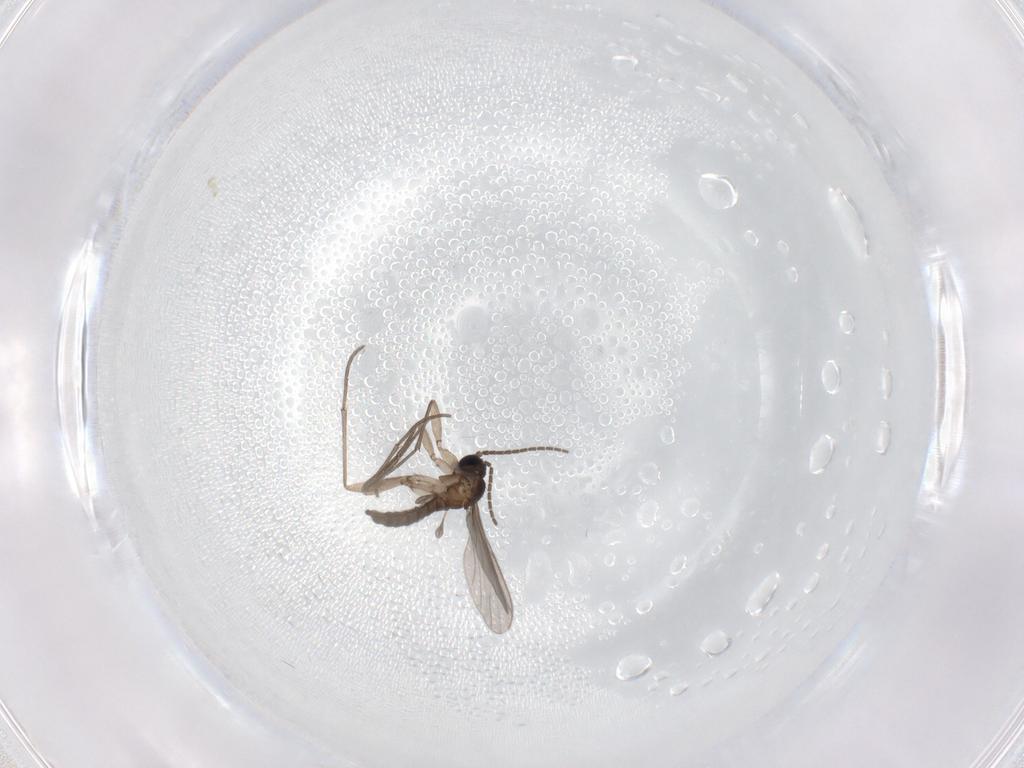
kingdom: Animalia
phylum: Arthropoda
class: Insecta
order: Diptera
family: Sciaridae
